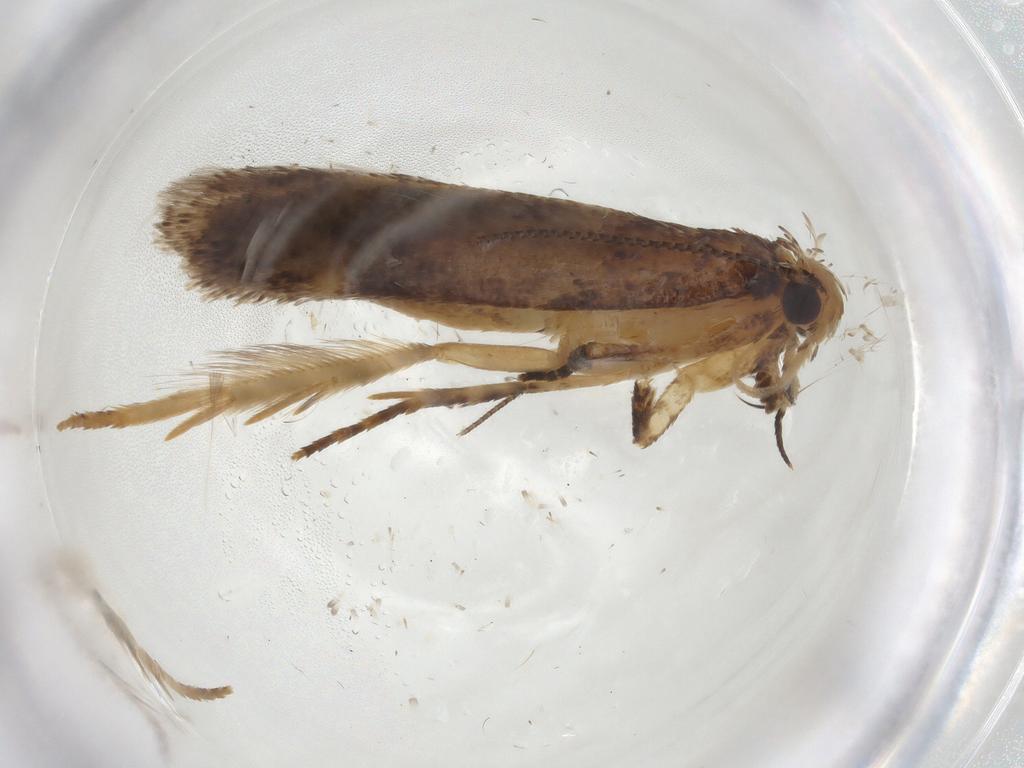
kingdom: Animalia
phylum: Arthropoda
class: Insecta
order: Lepidoptera
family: Gelechiidae
